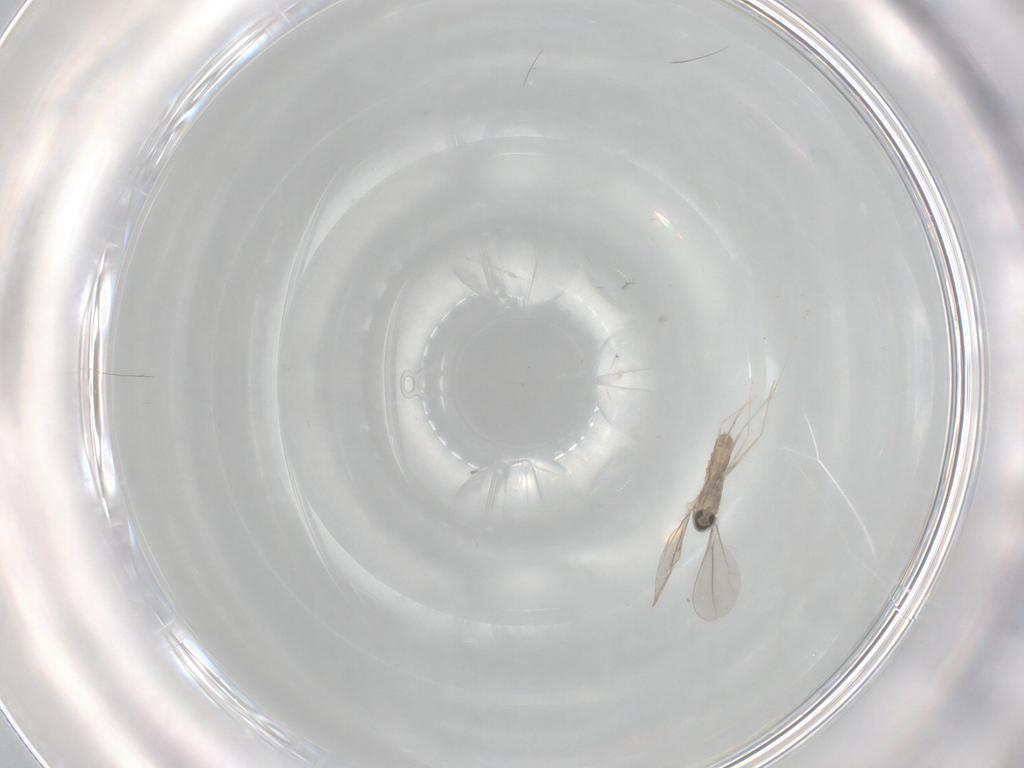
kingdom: Animalia
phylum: Arthropoda
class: Insecta
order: Diptera
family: Cecidomyiidae
